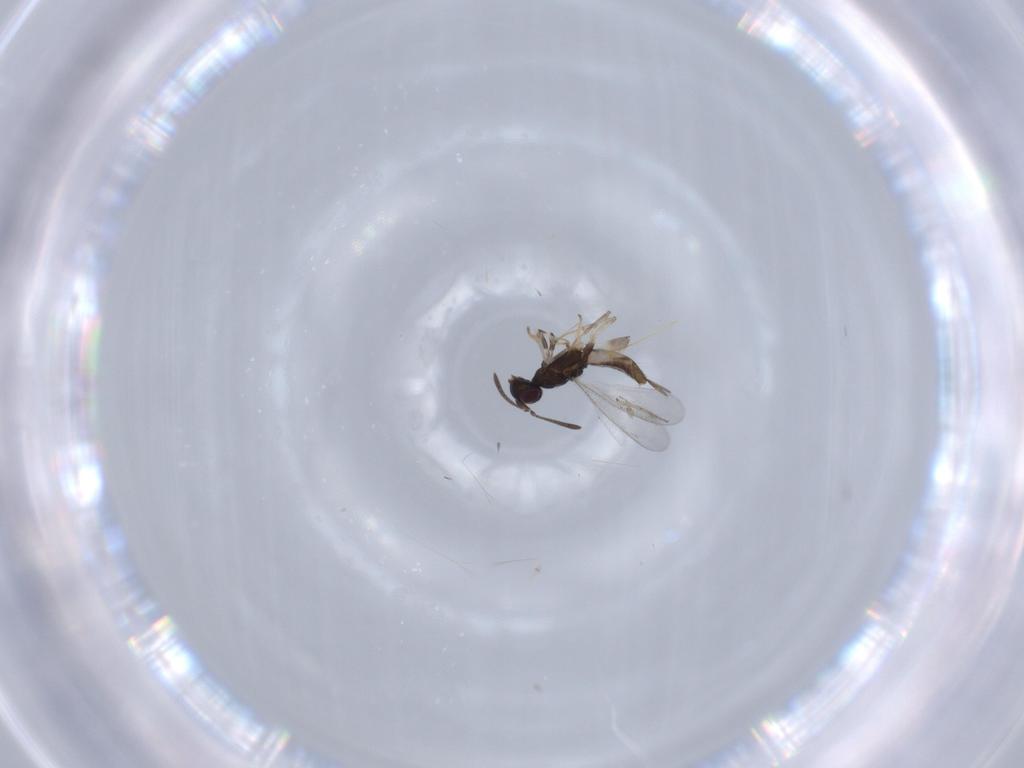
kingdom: Animalia
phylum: Arthropoda
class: Insecta
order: Hymenoptera
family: Eupelmidae
